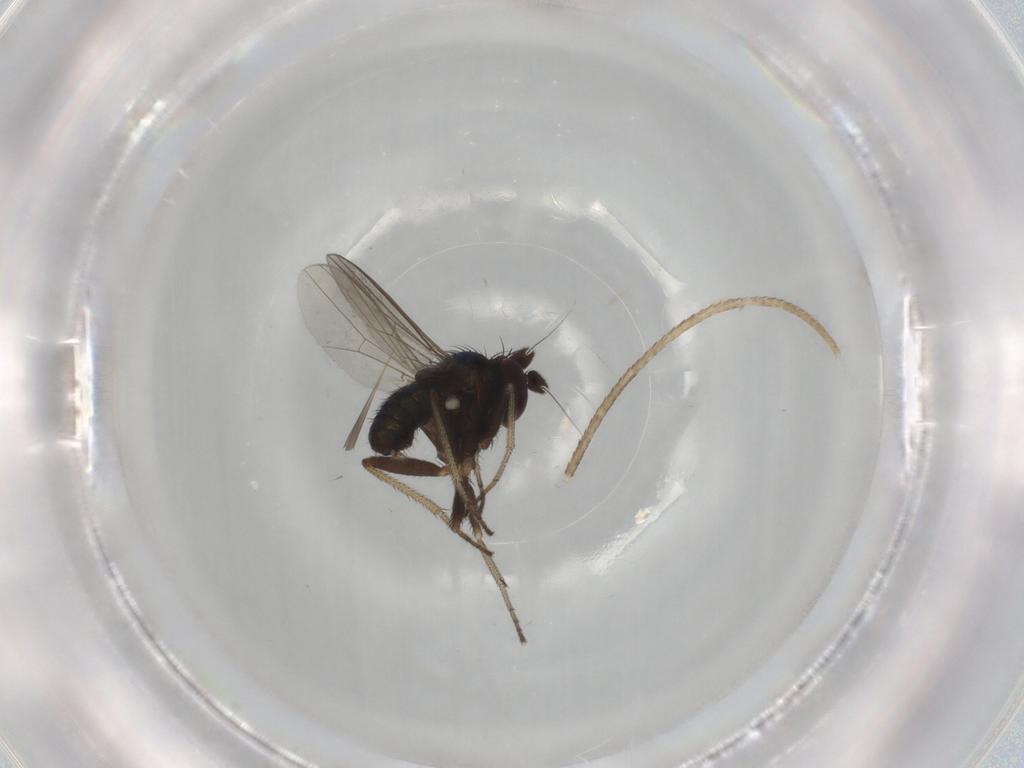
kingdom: Animalia
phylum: Arthropoda
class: Insecta
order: Diptera
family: Dolichopodidae
